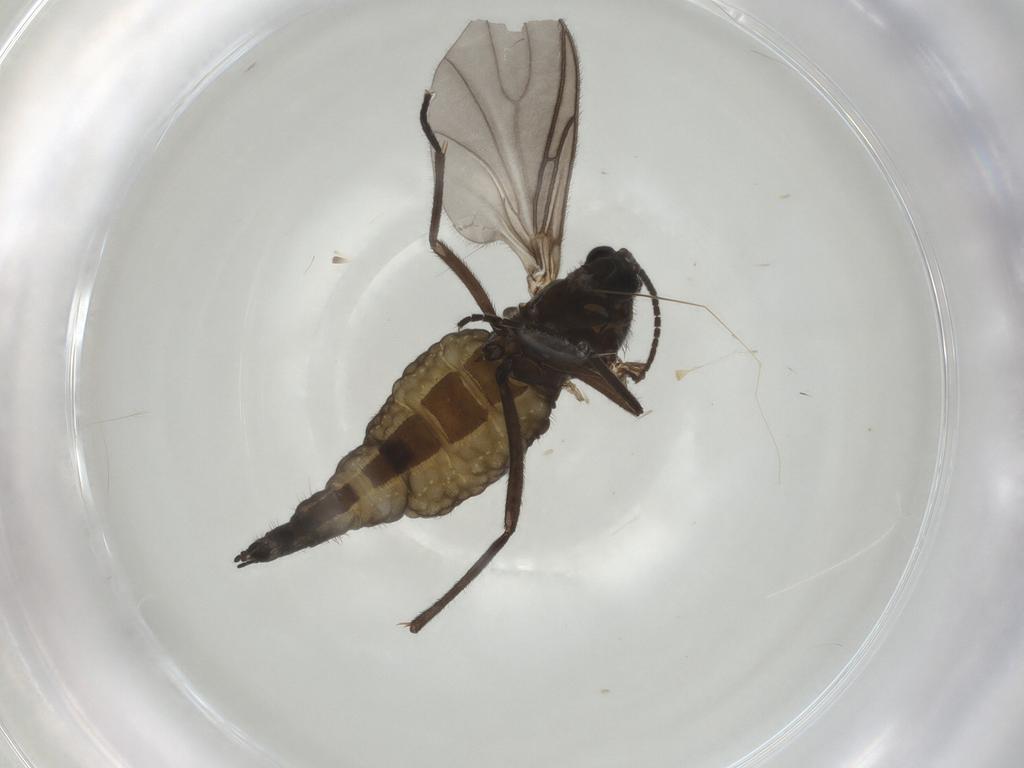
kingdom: Animalia
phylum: Arthropoda
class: Insecta
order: Diptera
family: Sciaridae
